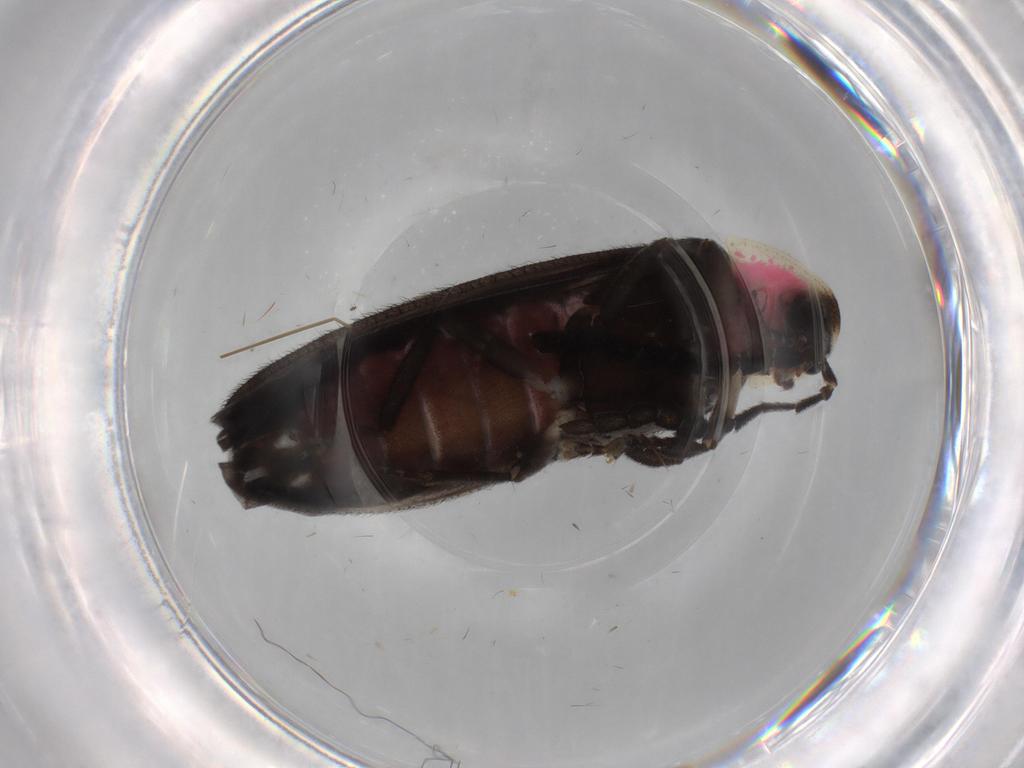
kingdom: Animalia
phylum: Arthropoda
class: Insecta
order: Coleoptera
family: Lampyridae
